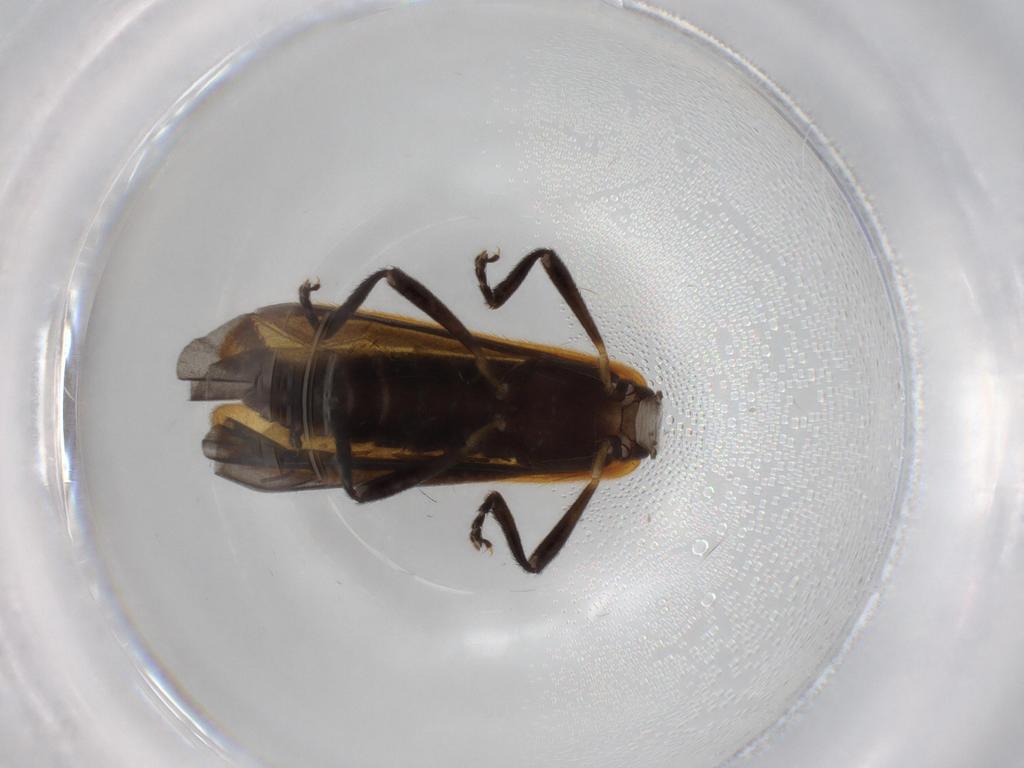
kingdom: Animalia
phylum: Arthropoda
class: Insecta
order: Coleoptera
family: Lycidae
